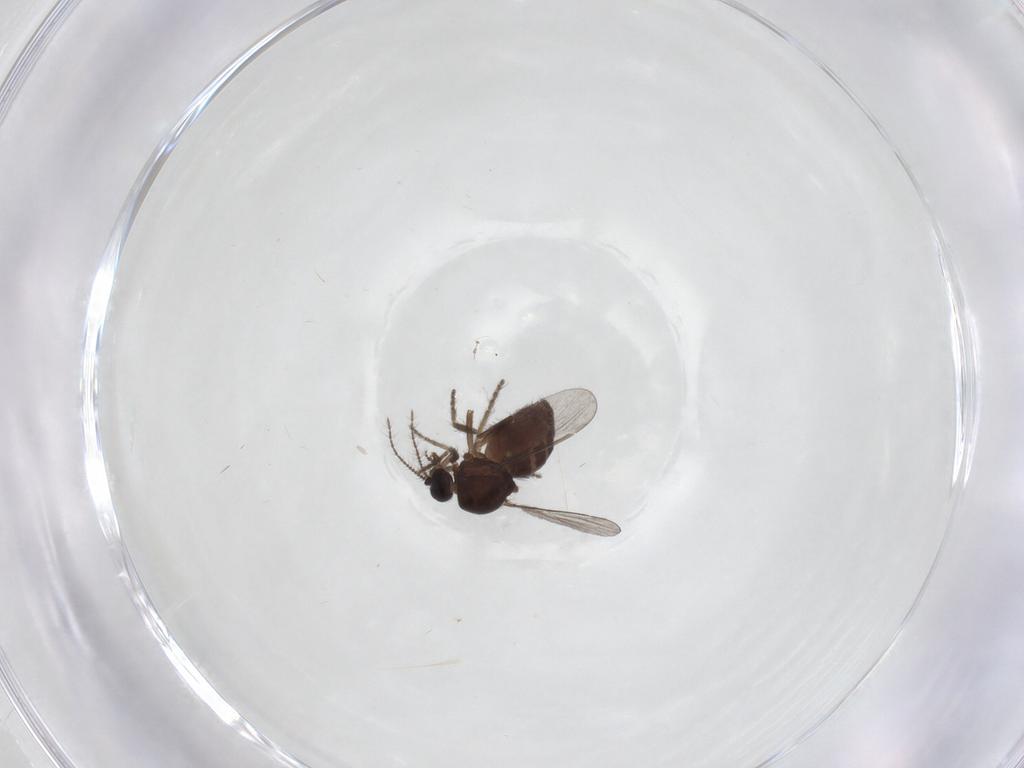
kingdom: Animalia
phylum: Arthropoda
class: Insecta
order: Diptera
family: Ceratopogonidae
